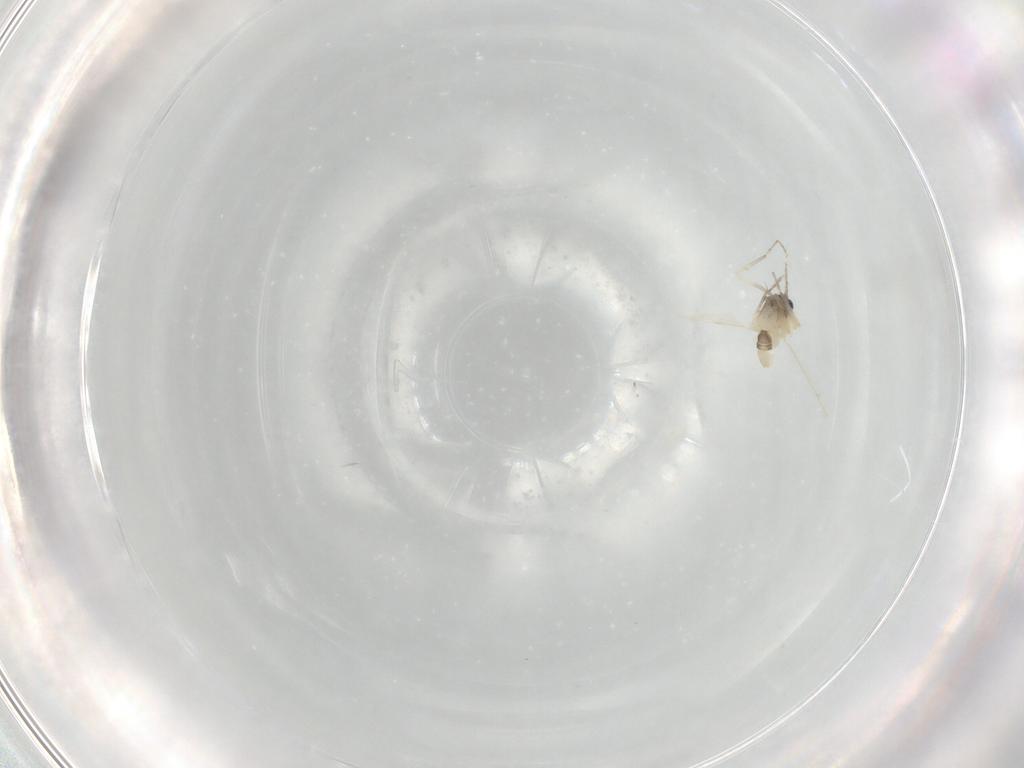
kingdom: Animalia
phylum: Arthropoda
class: Insecta
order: Diptera
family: Ceratopogonidae
